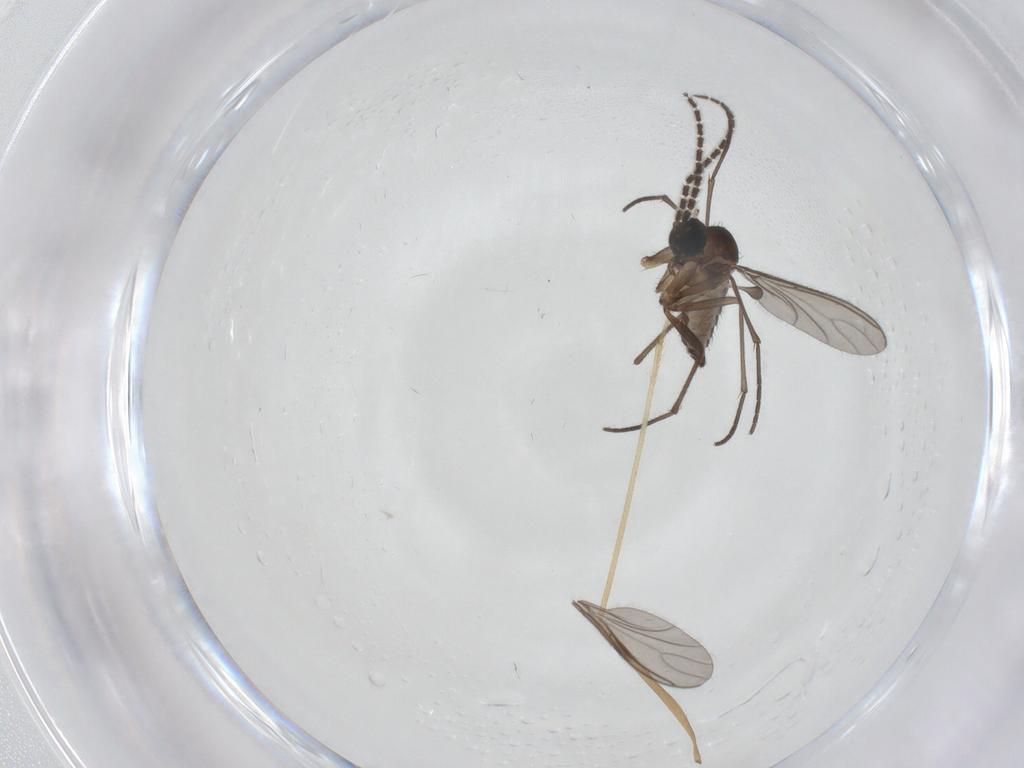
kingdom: Animalia
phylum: Arthropoda
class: Insecta
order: Diptera
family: Sciaridae
